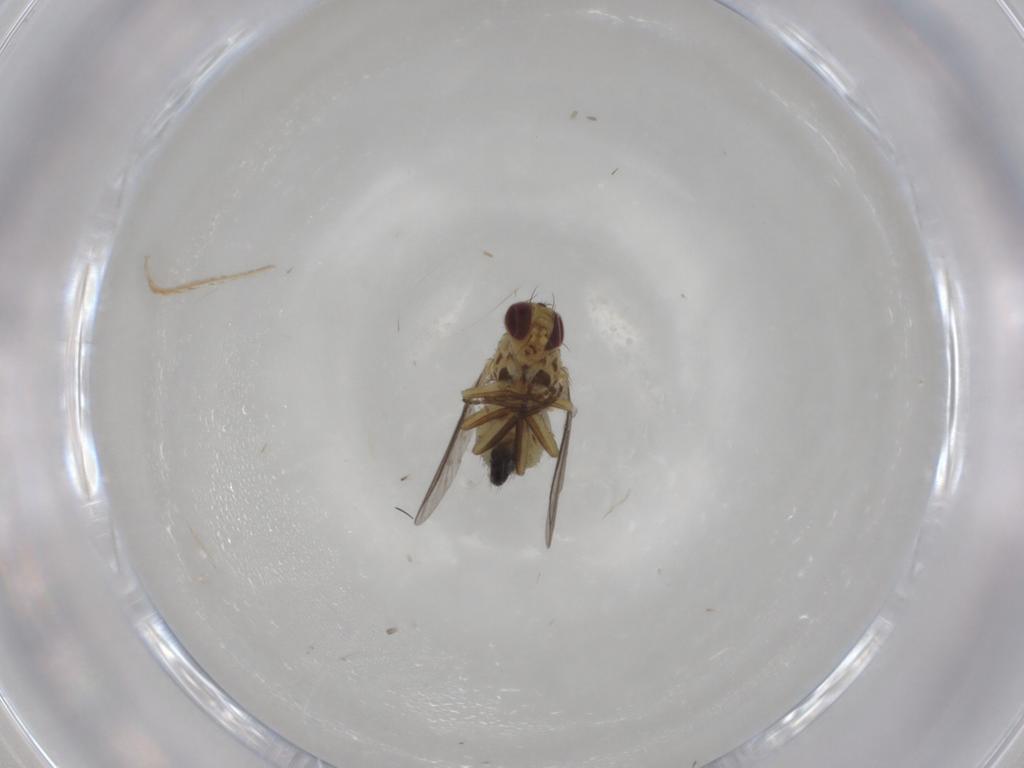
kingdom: Animalia
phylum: Arthropoda
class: Insecta
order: Diptera
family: Agromyzidae
